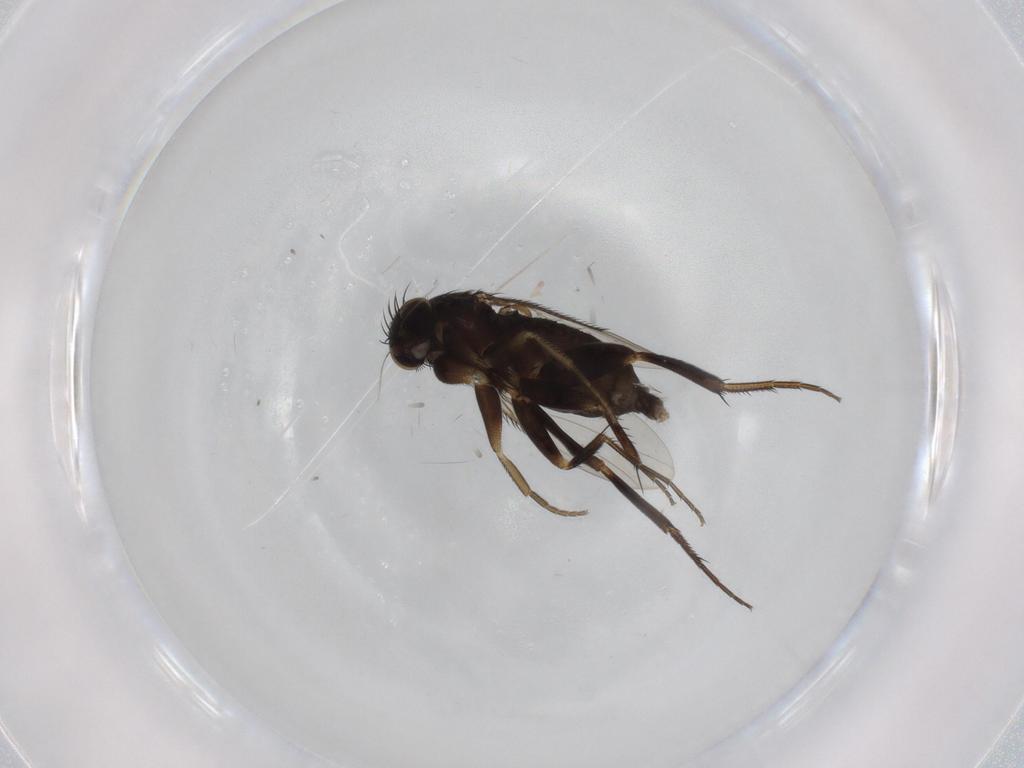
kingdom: Animalia
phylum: Arthropoda
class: Insecta
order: Diptera
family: Phoridae
